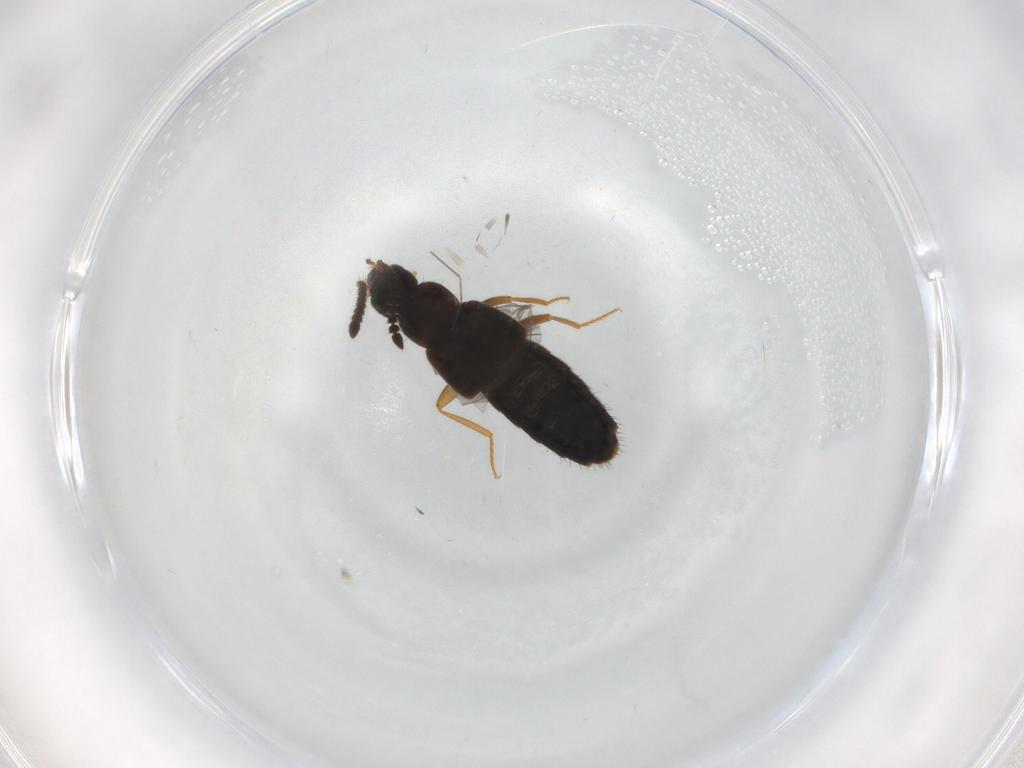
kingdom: Animalia
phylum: Arthropoda
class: Insecta
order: Coleoptera
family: Staphylinidae
